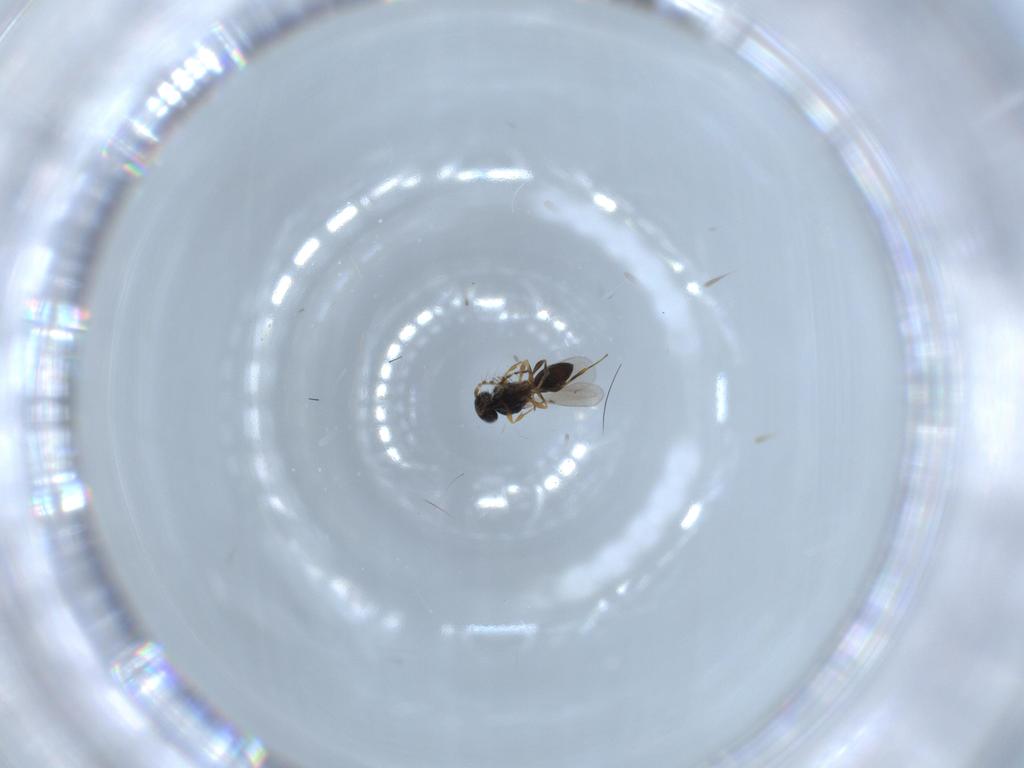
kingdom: Animalia
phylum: Arthropoda
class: Insecta
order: Hymenoptera
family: Platygastridae
